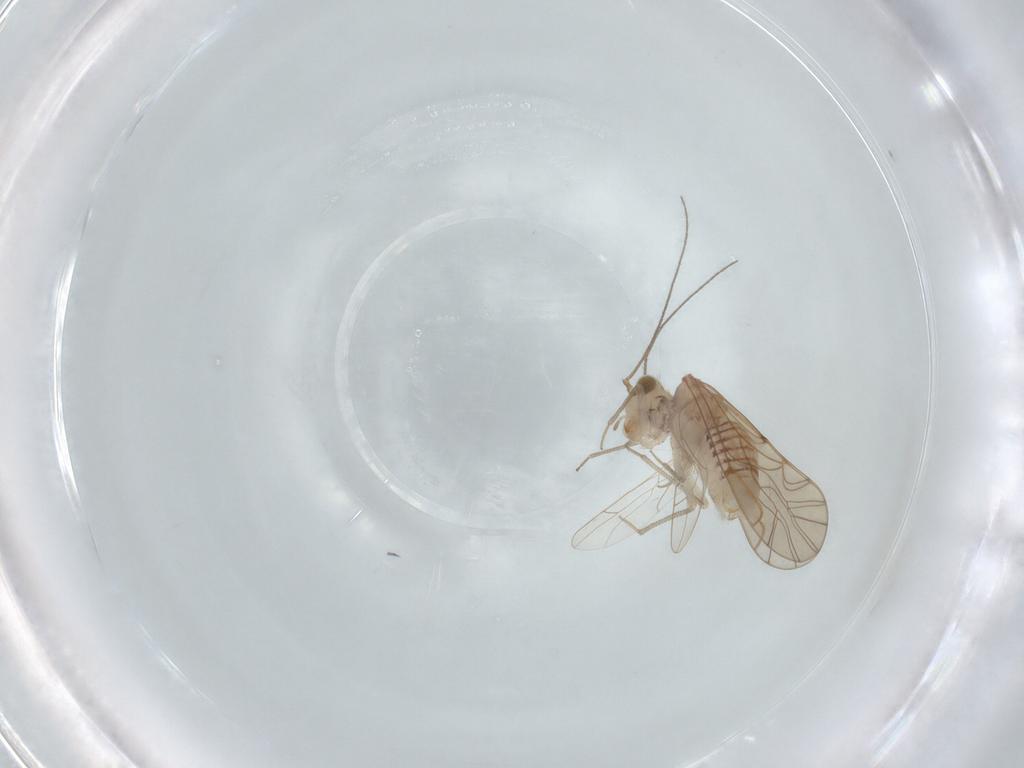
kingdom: Animalia
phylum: Arthropoda
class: Insecta
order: Psocodea
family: Lachesillidae
